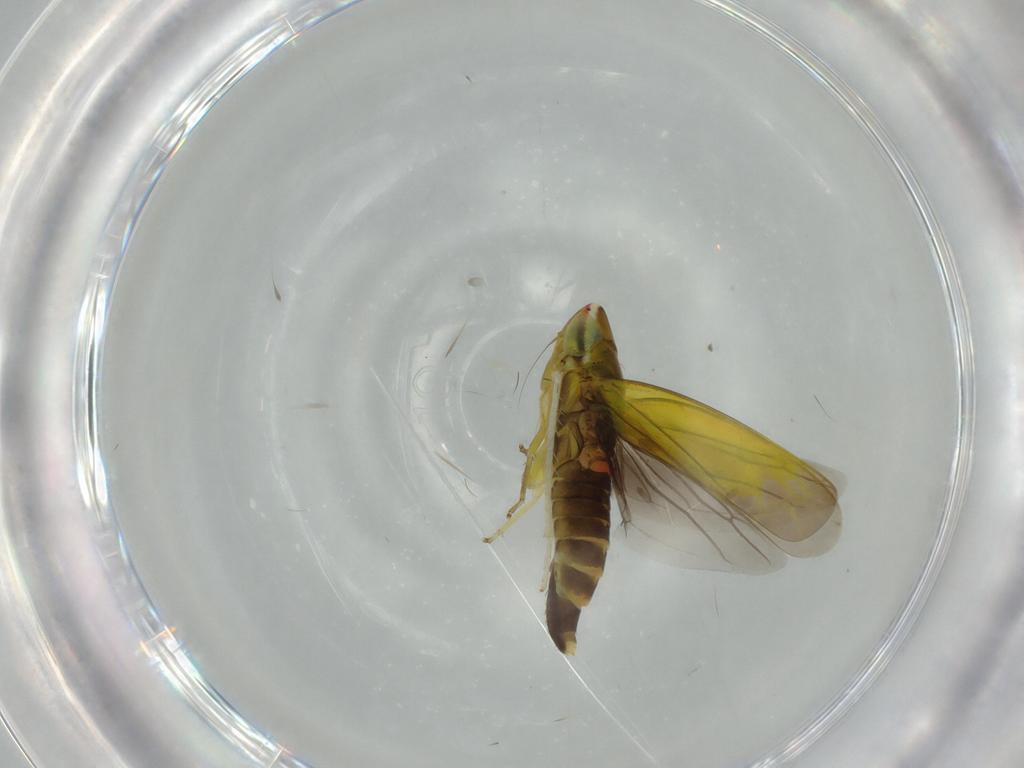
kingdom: Animalia
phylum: Arthropoda
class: Insecta
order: Hemiptera
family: Cicadellidae
